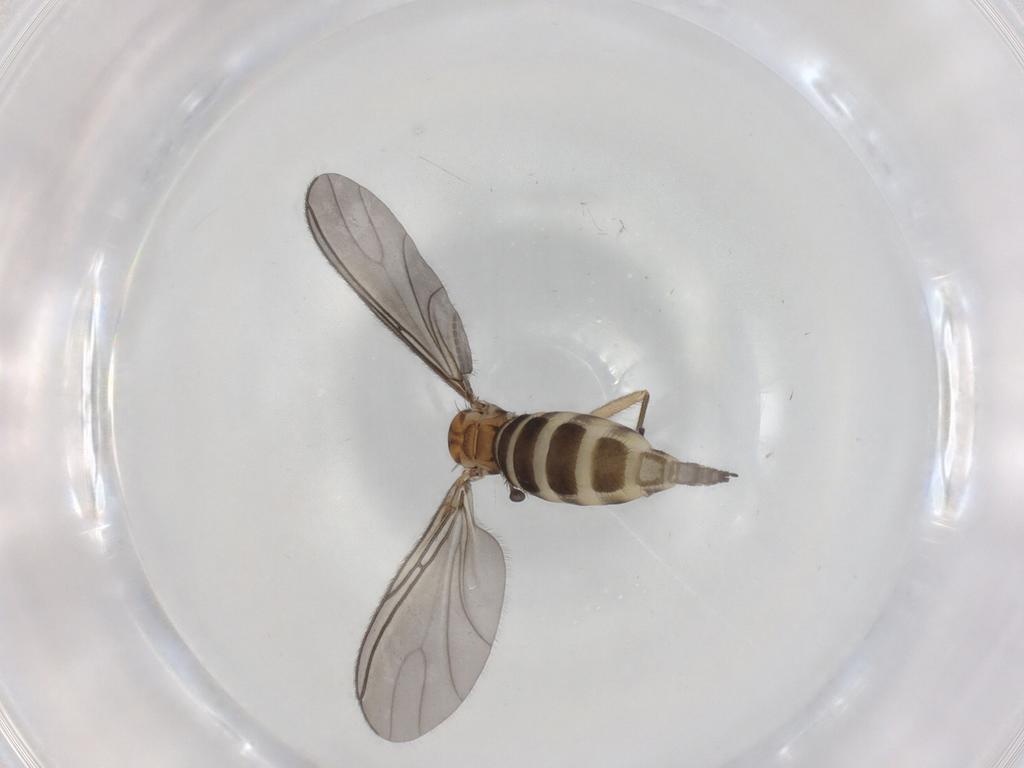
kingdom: Animalia
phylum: Arthropoda
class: Insecta
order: Diptera
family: Sciaridae
